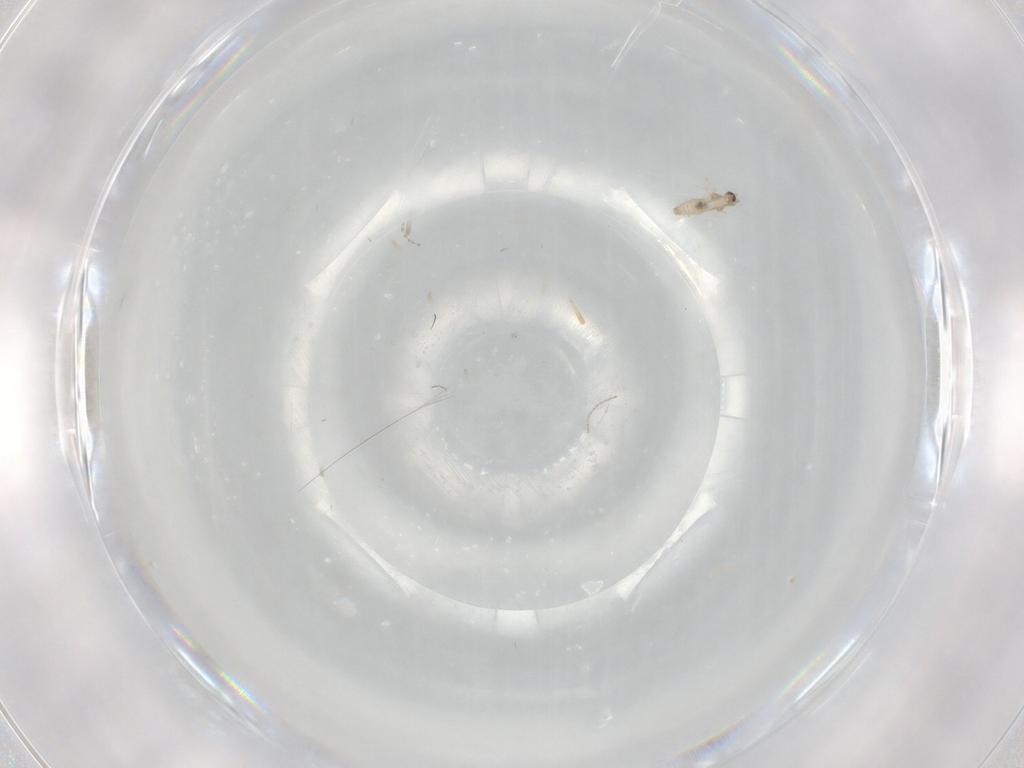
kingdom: Animalia
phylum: Arthropoda
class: Insecta
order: Diptera
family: Cecidomyiidae
